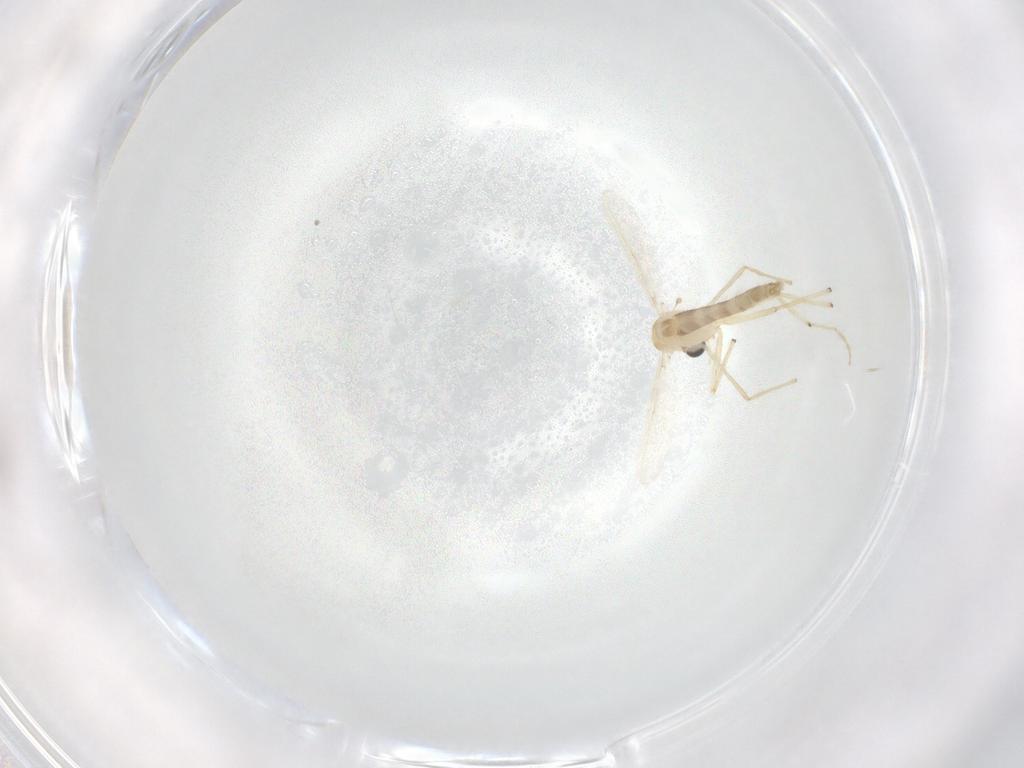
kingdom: Animalia
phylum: Arthropoda
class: Insecta
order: Diptera
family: Chironomidae
